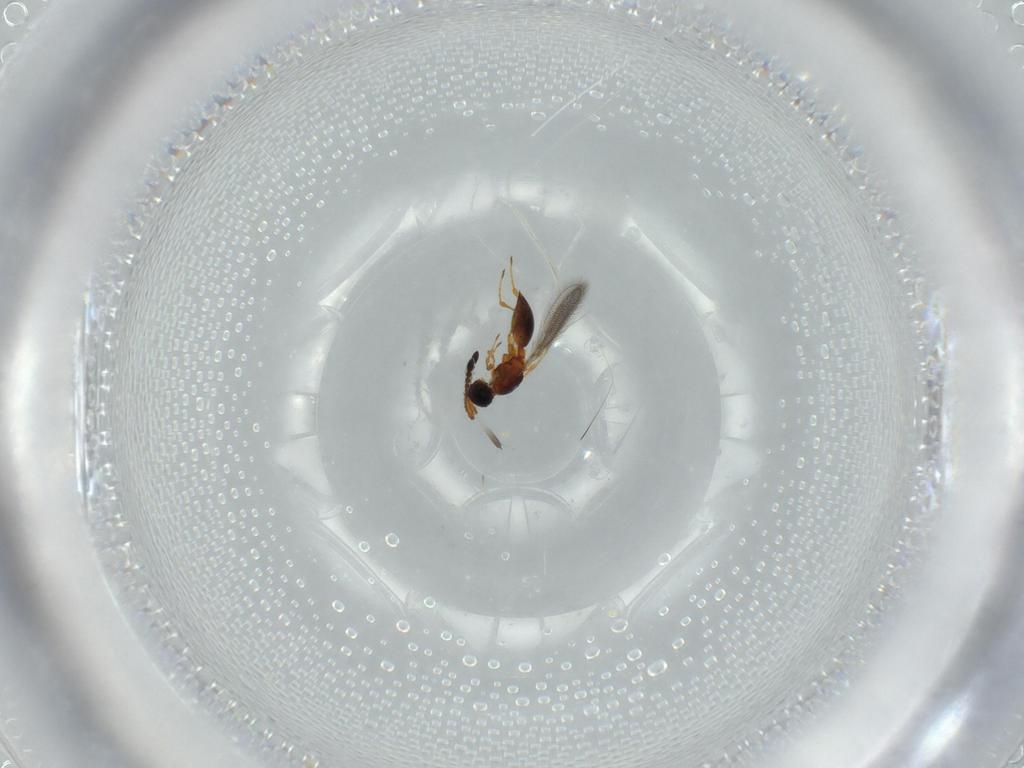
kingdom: Animalia
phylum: Arthropoda
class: Insecta
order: Hymenoptera
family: Diapriidae
